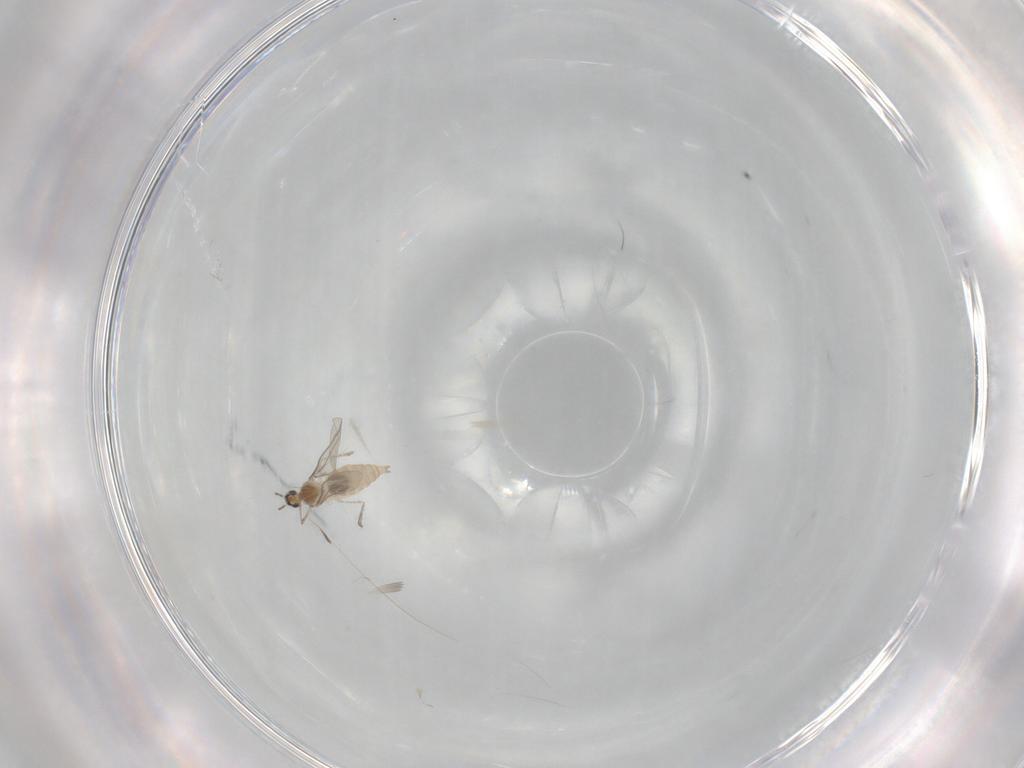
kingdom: Animalia
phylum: Arthropoda
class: Insecta
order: Diptera
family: Cecidomyiidae
